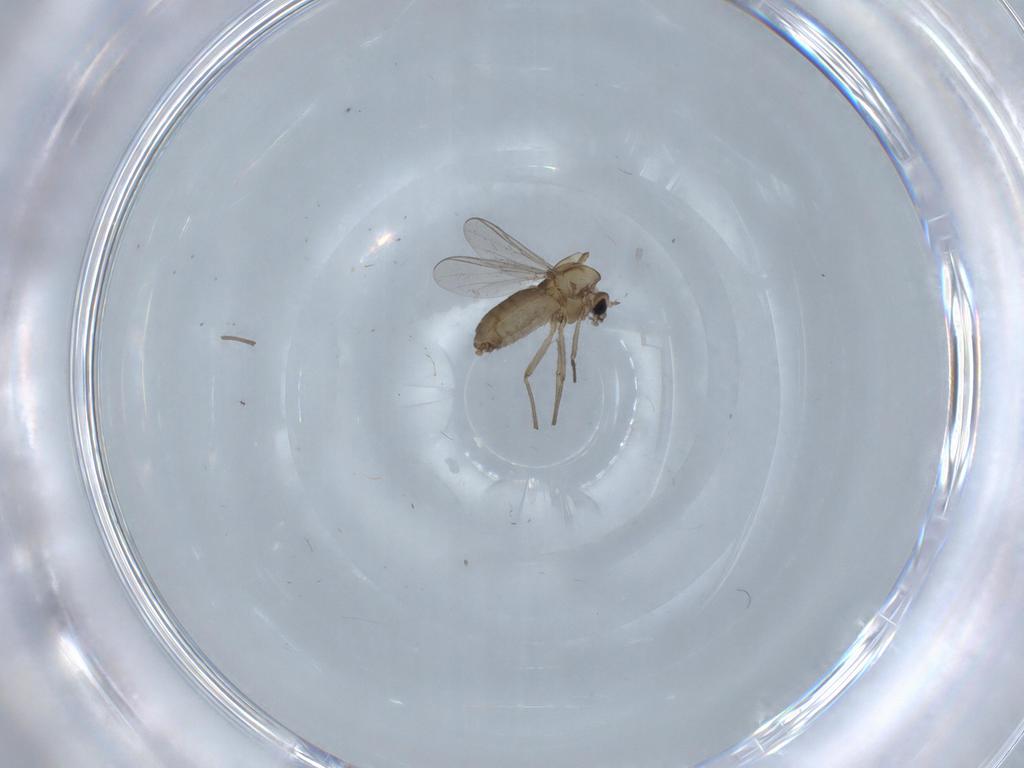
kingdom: Animalia
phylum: Arthropoda
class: Insecta
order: Diptera
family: Chironomidae
